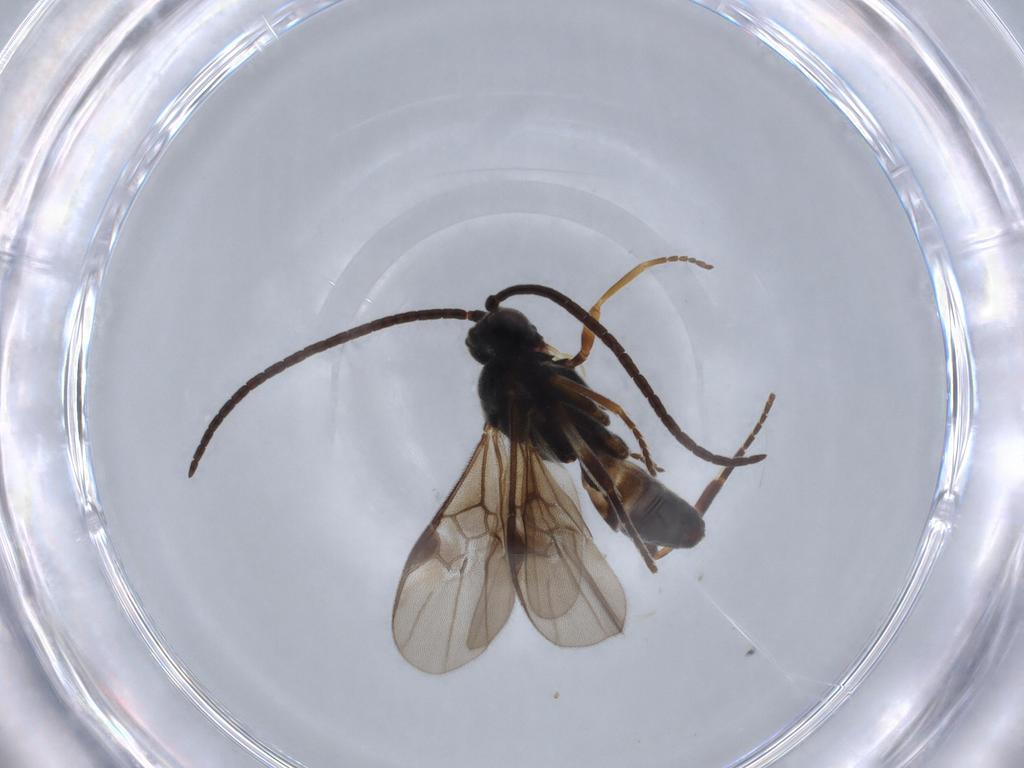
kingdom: Animalia
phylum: Arthropoda
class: Insecta
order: Hymenoptera
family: Braconidae
